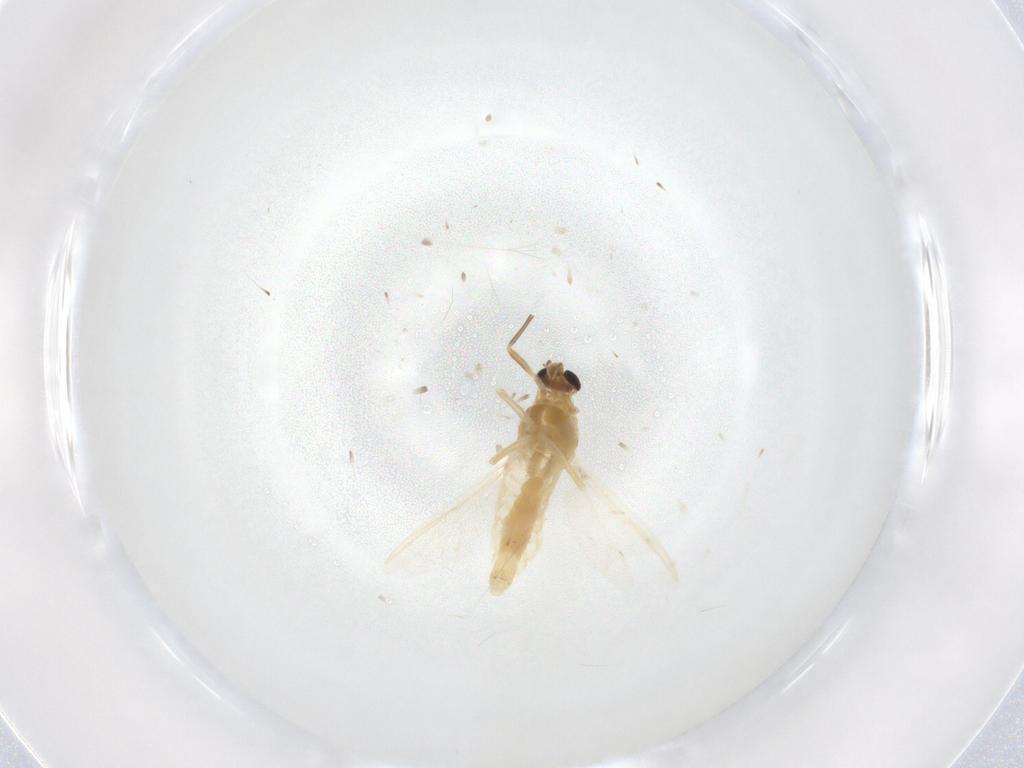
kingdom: Animalia
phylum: Arthropoda
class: Insecta
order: Diptera
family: Chironomidae
